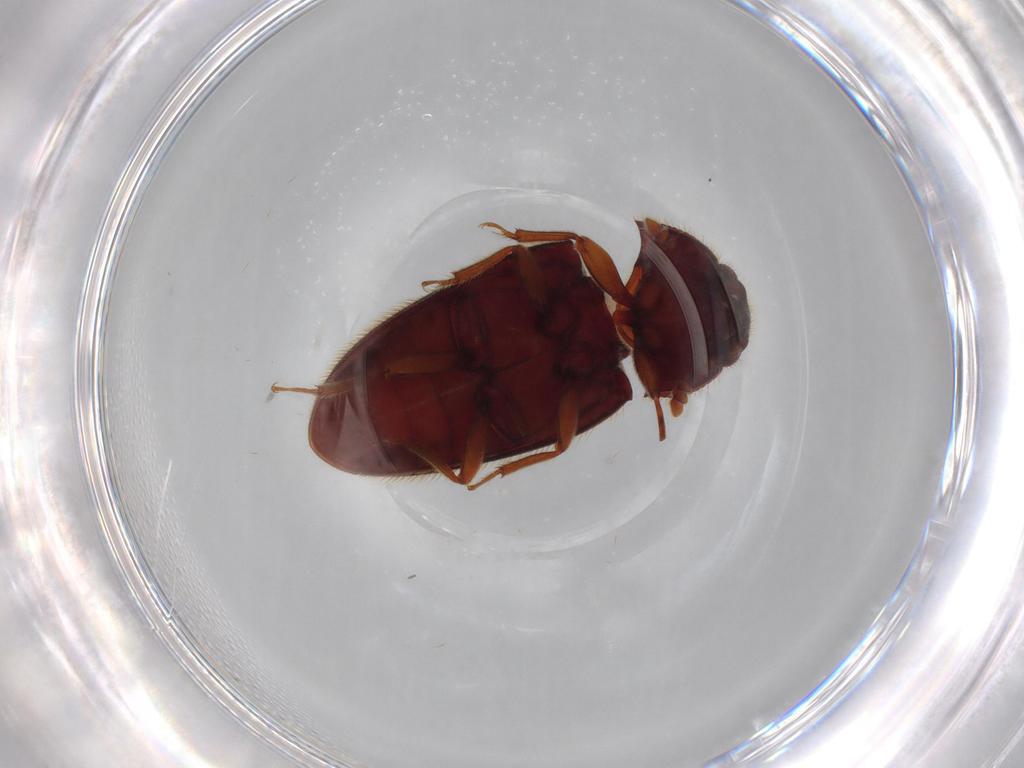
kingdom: Animalia
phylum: Arthropoda
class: Insecta
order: Coleoptera
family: Biphyllidae
